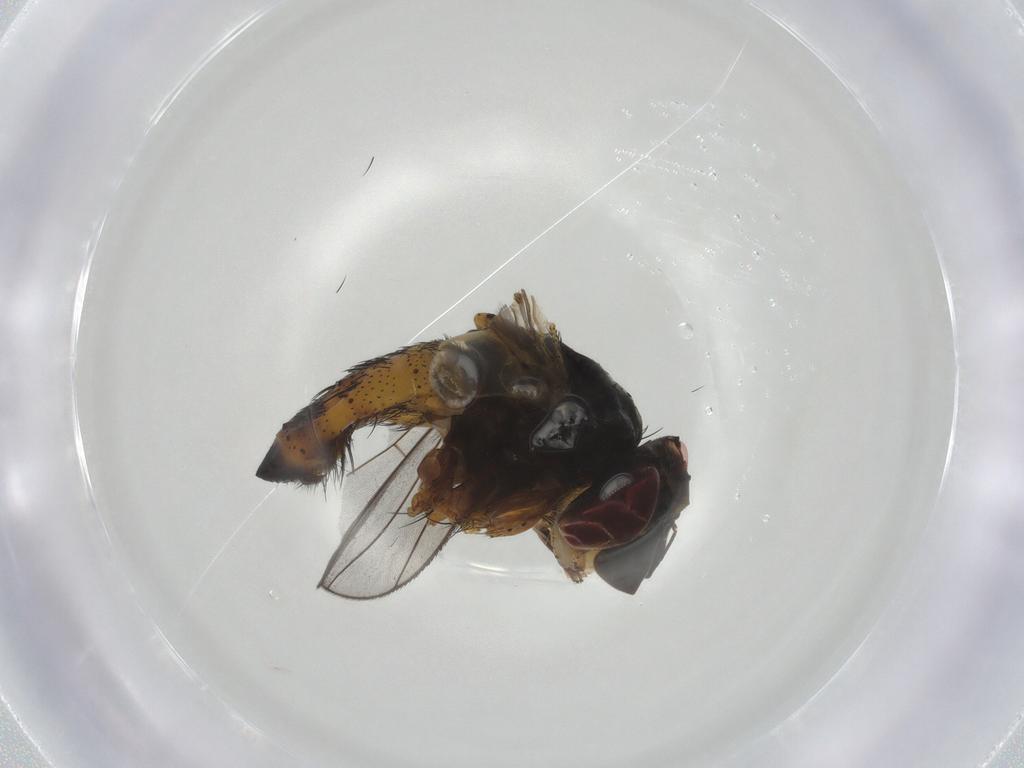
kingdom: Animalia
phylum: Arthropoda
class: Insecta
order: Diptera
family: Tachinidae
